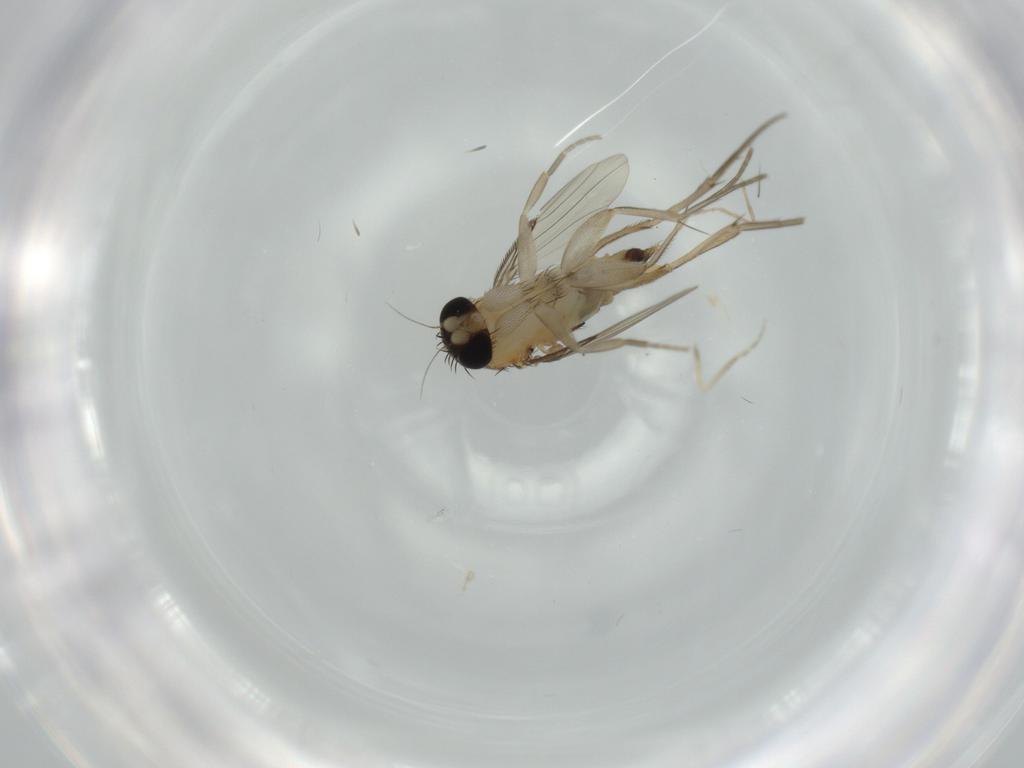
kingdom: Animalia
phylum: Arthropoda
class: Insecta
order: Diptera
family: Phoridae
